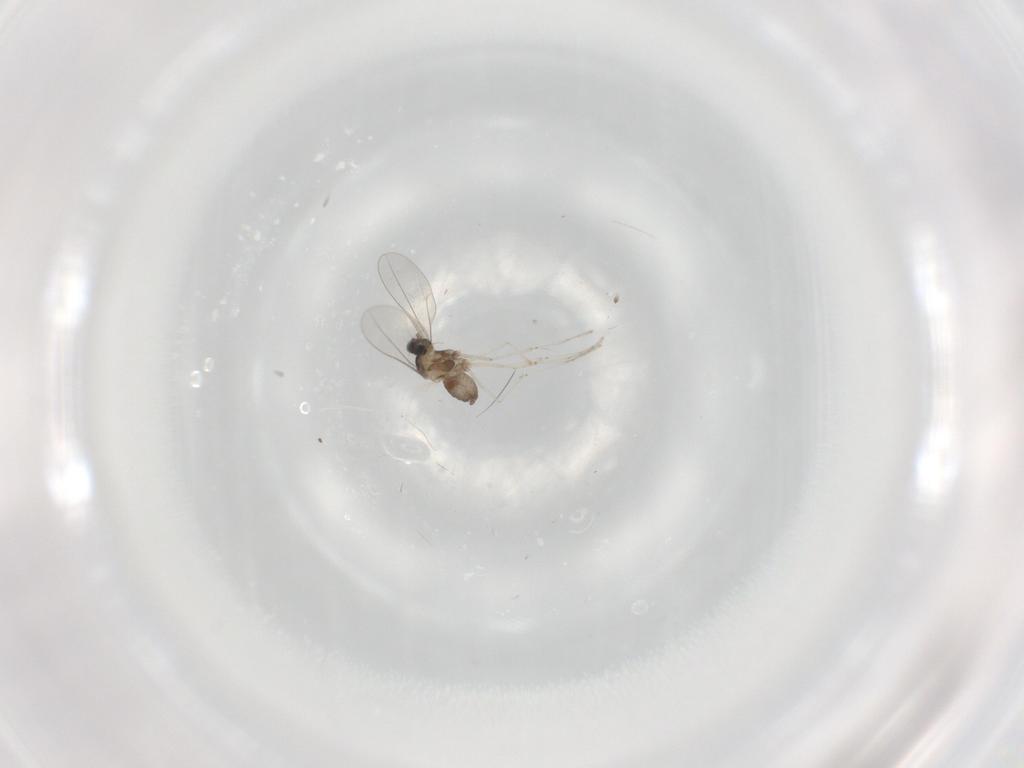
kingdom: Animalia
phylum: Arthropoda
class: Insecta
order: Diptera
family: Cecidomyiidae
